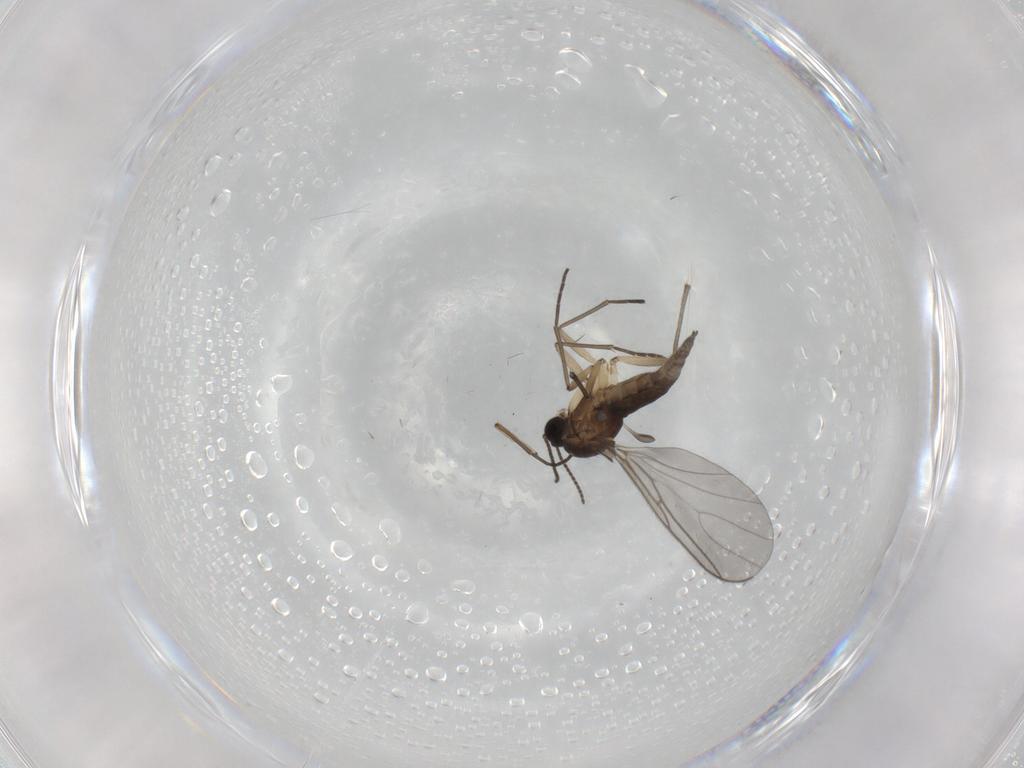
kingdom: Animalia
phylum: Arthropoda
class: Insecta
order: Diptera
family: Sciaridae
